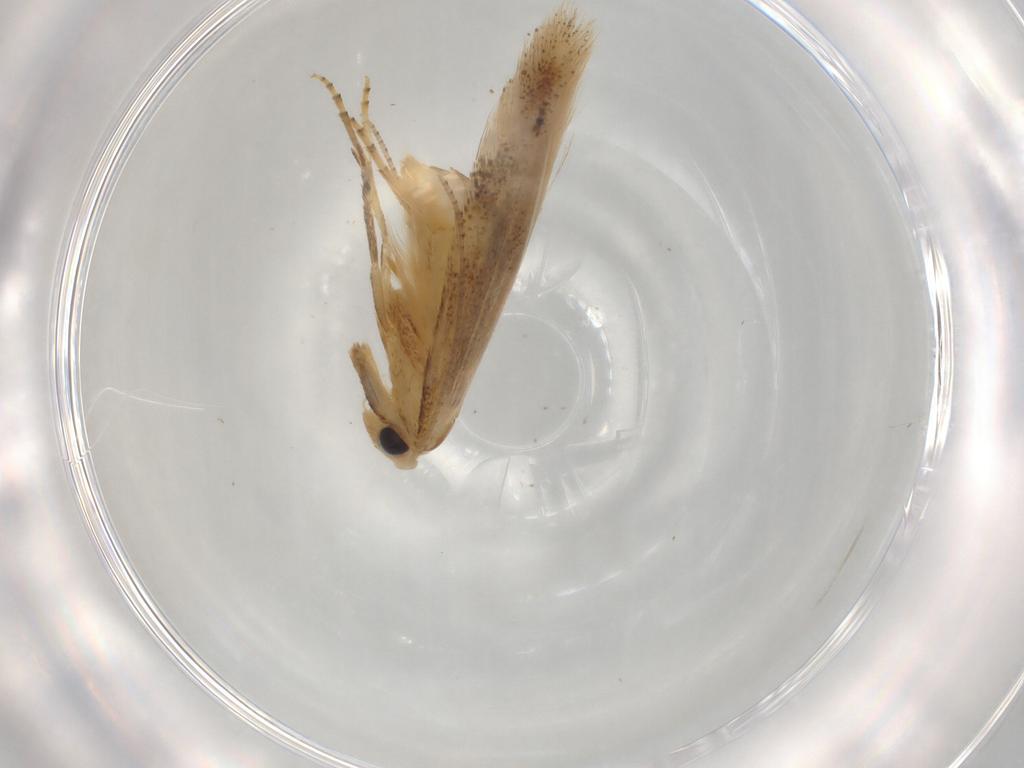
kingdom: Animalia
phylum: Arthropoda
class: Insecta
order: Lepidoptera
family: Bucculatricidae
